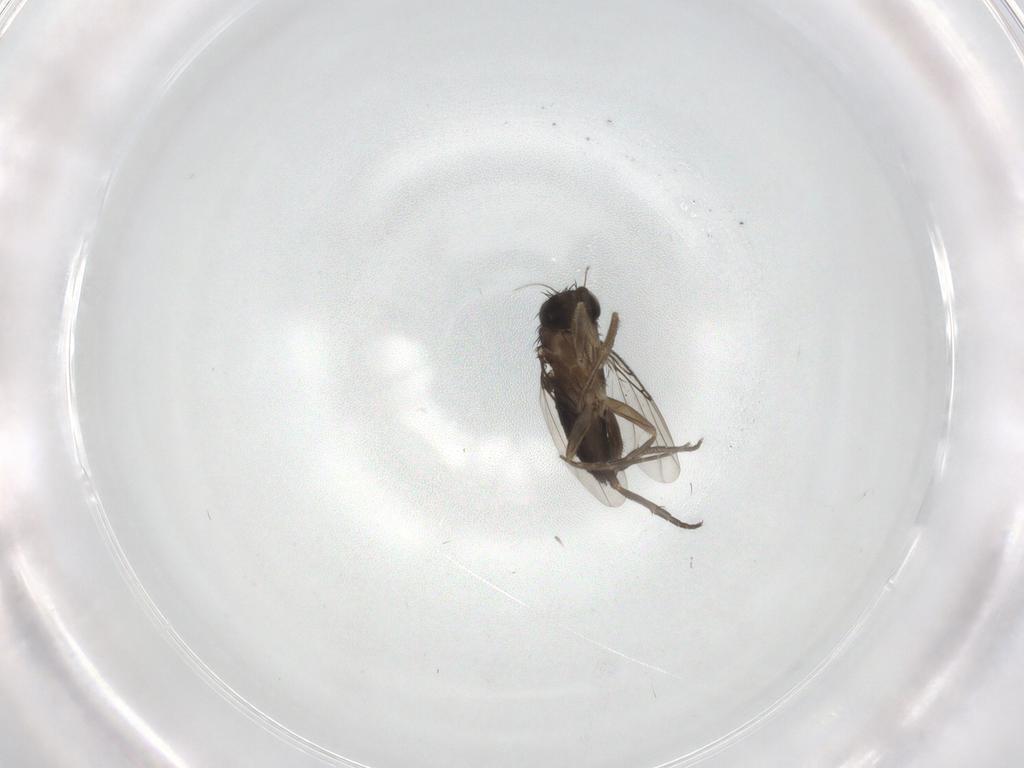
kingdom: Animalia
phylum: Arthropoda
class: Insecta
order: Diptera
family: Phoridae
